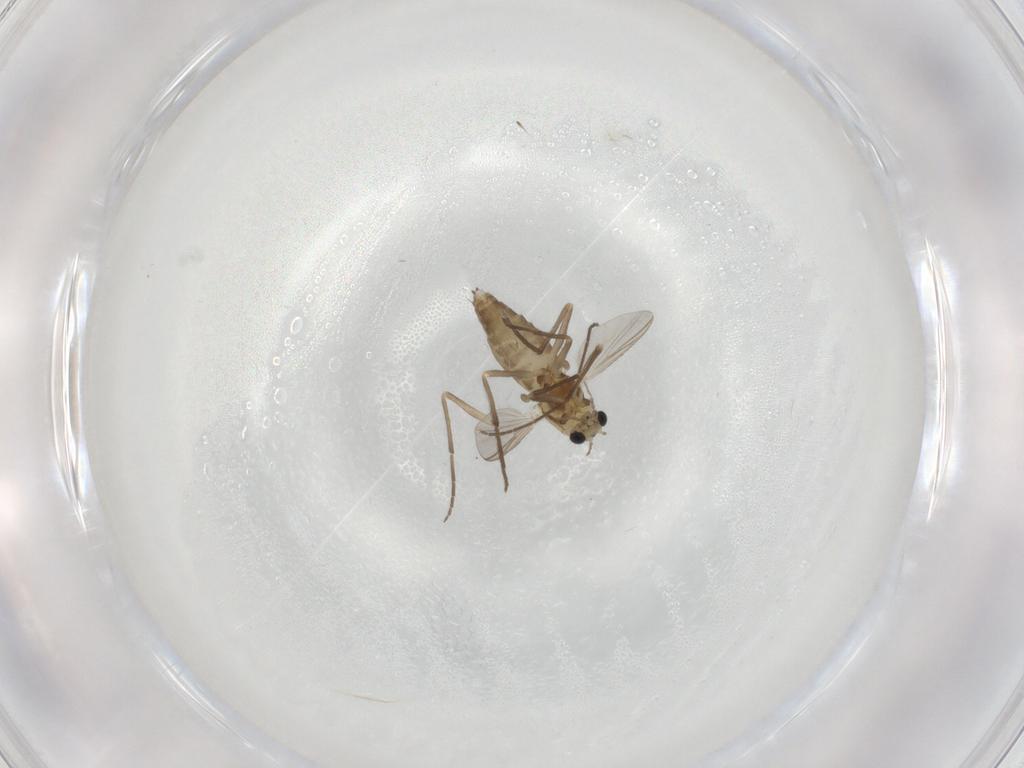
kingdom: Animalia
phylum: Arthropoda
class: Insecta
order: Diptera
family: Chironomidae
